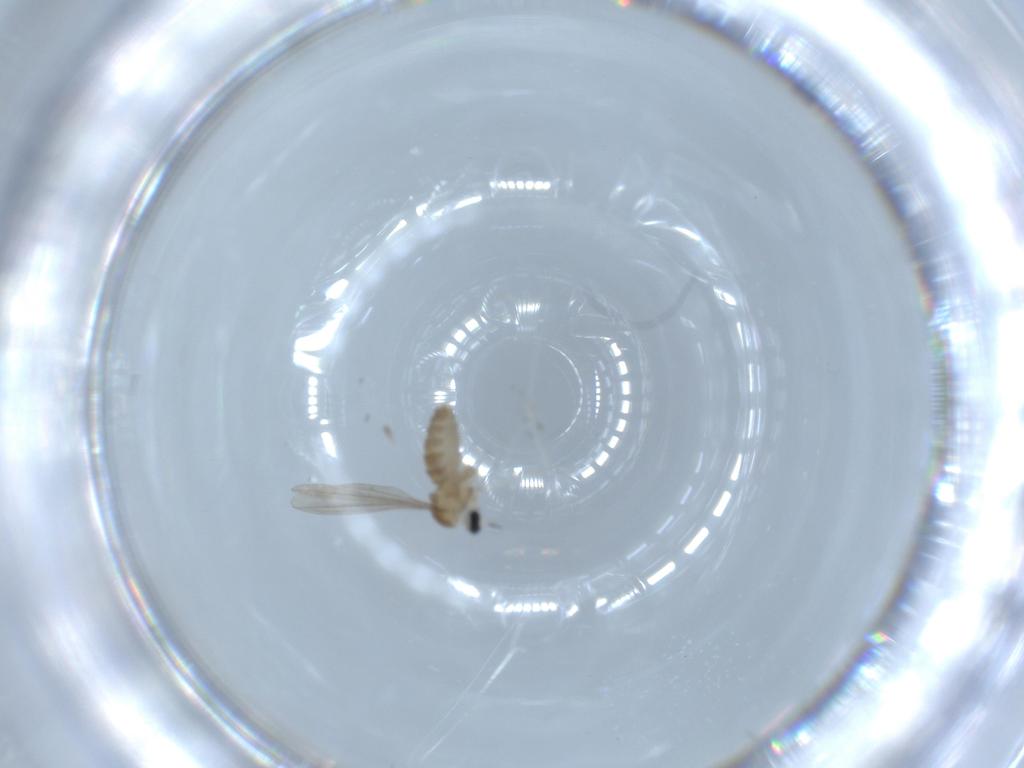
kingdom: Animalia
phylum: Arthropoda
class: Insecta
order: Diptera
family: Cecidomyiidae
